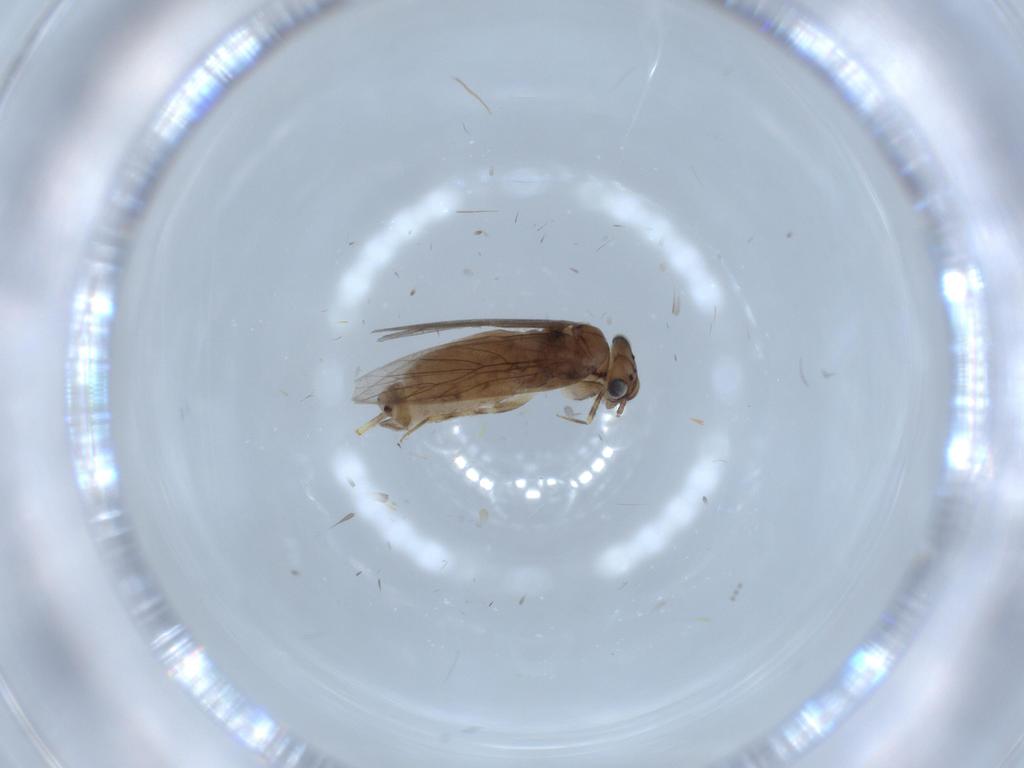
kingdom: Animalia
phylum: Arthropoda
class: Insecta
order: Psocodea
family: Lepidopsocidae
